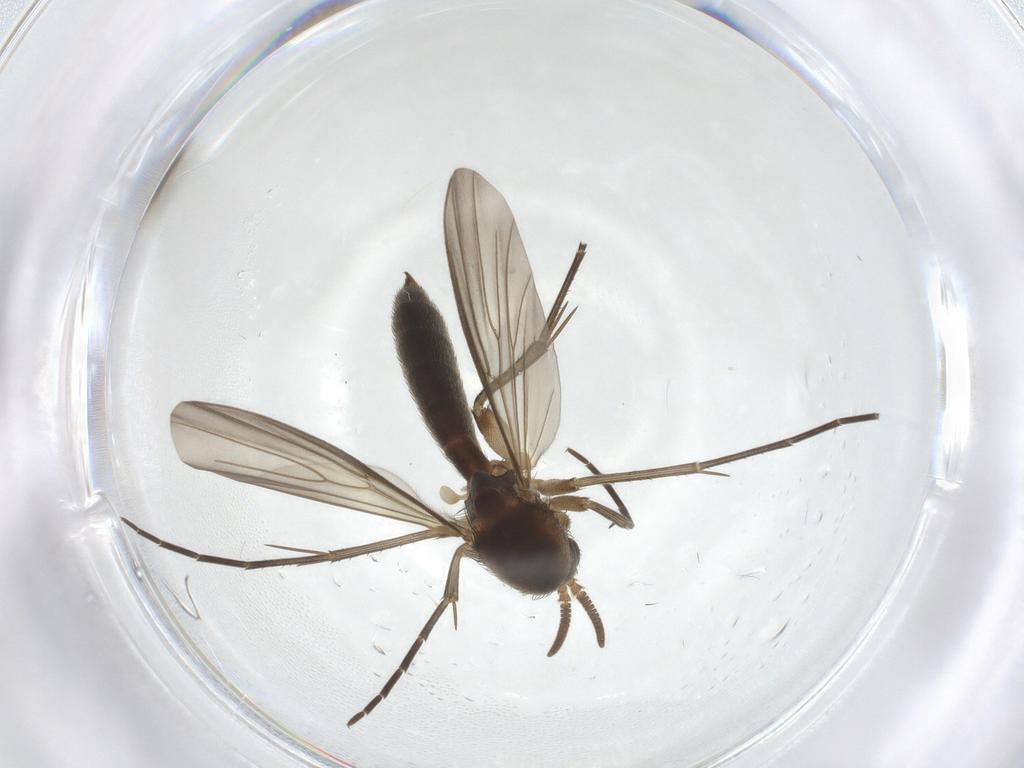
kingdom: Animalia
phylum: Arthropoda
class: Insecta
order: Diptera
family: Mycetophilidae
